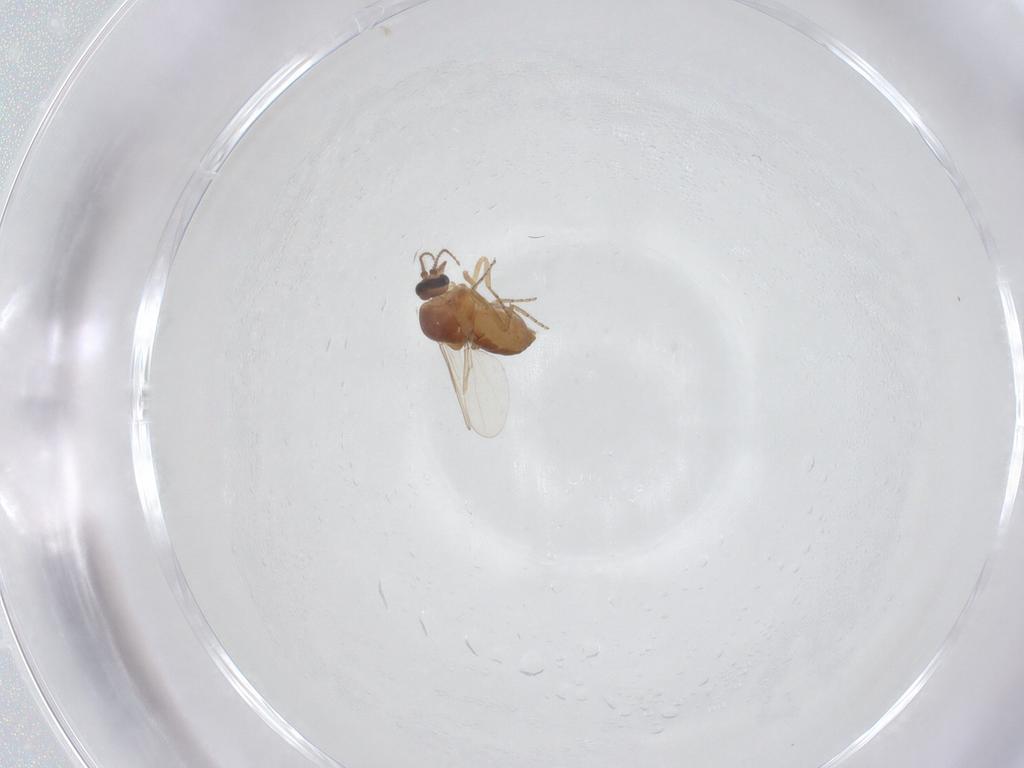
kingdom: Animalia
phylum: Arthropoda
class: Insecta
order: Diptera
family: Ceratopogonidae
